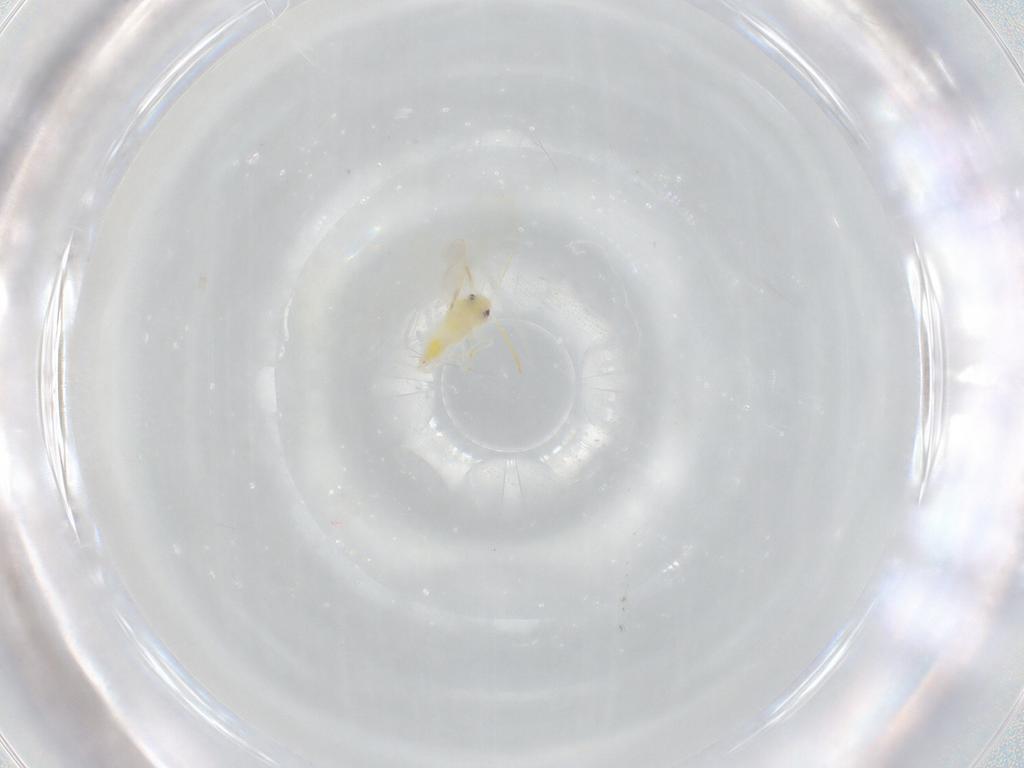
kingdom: Animalia
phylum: Arthropoda
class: Insecta
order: Hemiptera
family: Aleyrodidae
